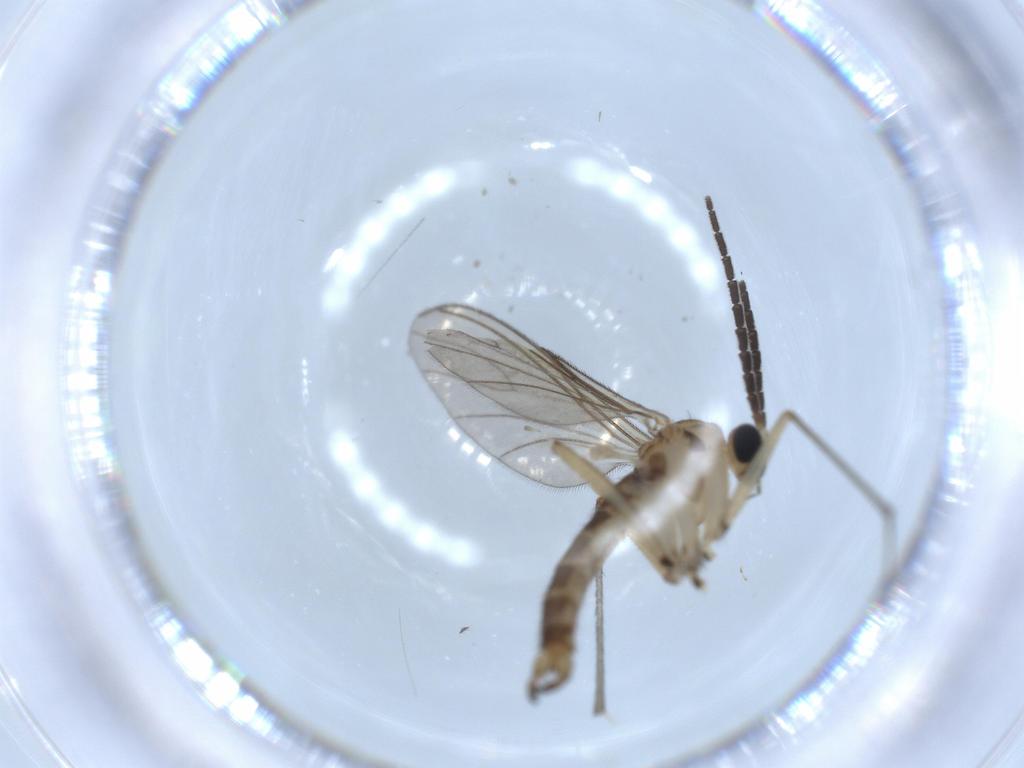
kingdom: Animalia
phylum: Arthropoda
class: Insecta
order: Diptera
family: Sciaridae
